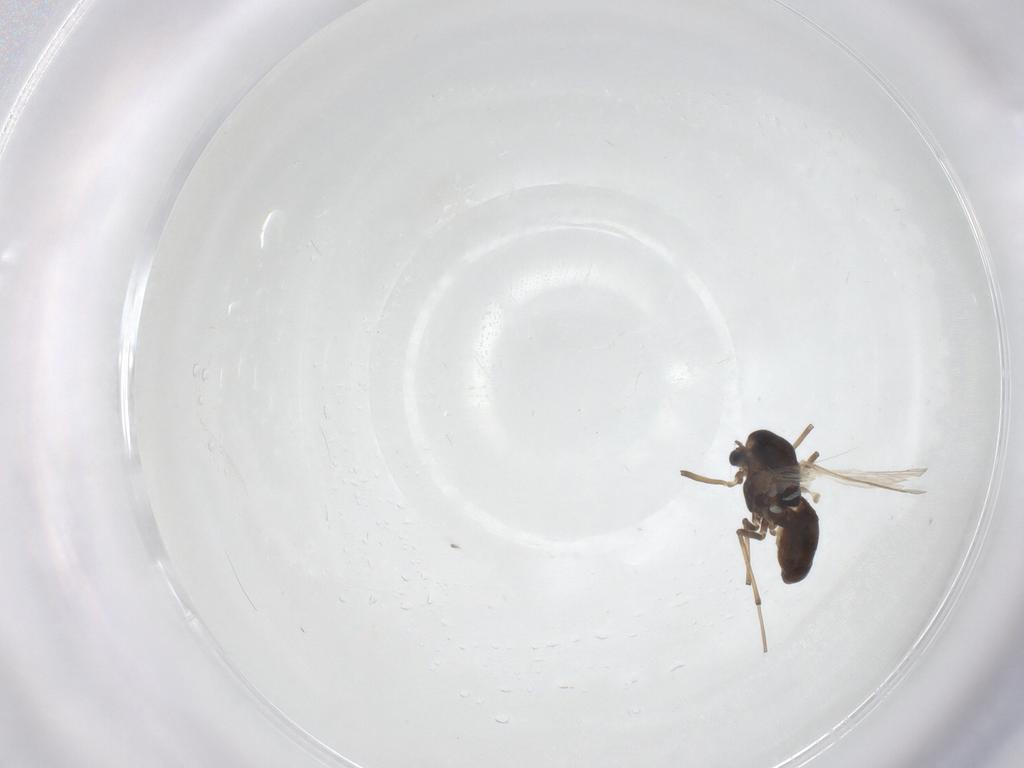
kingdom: Animalia
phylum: Arthropoda
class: Insecta
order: Diptera
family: Chironomidae
